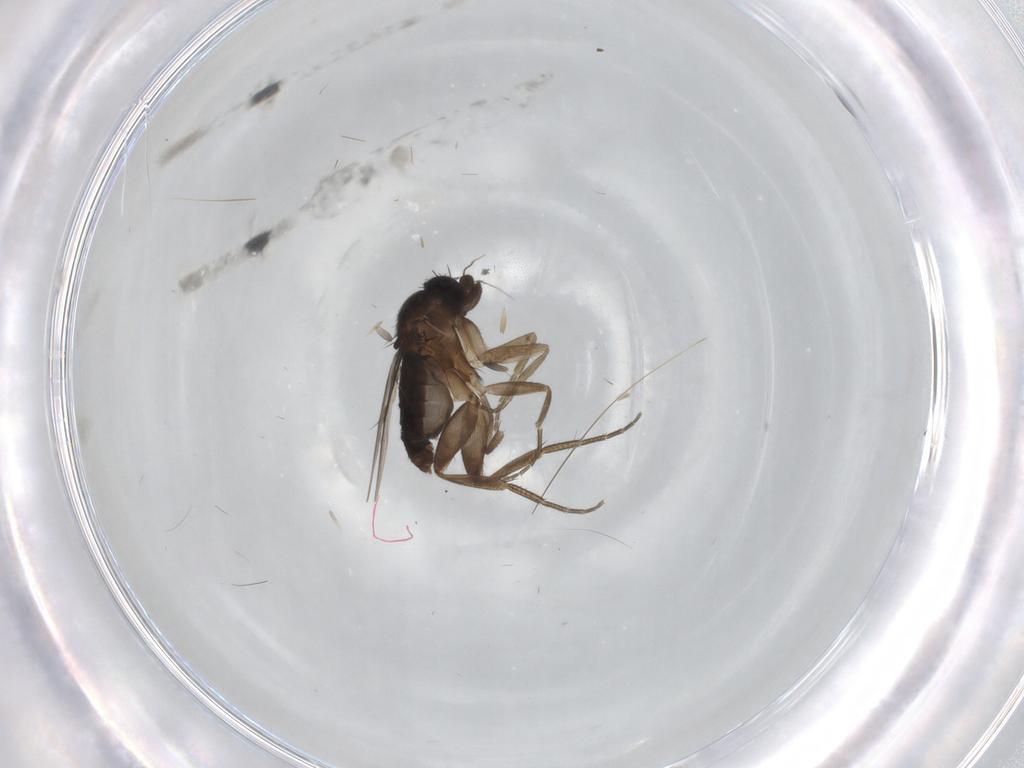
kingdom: Animalia
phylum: Arthropoda
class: Insecta
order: Diptera
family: Phoridae
